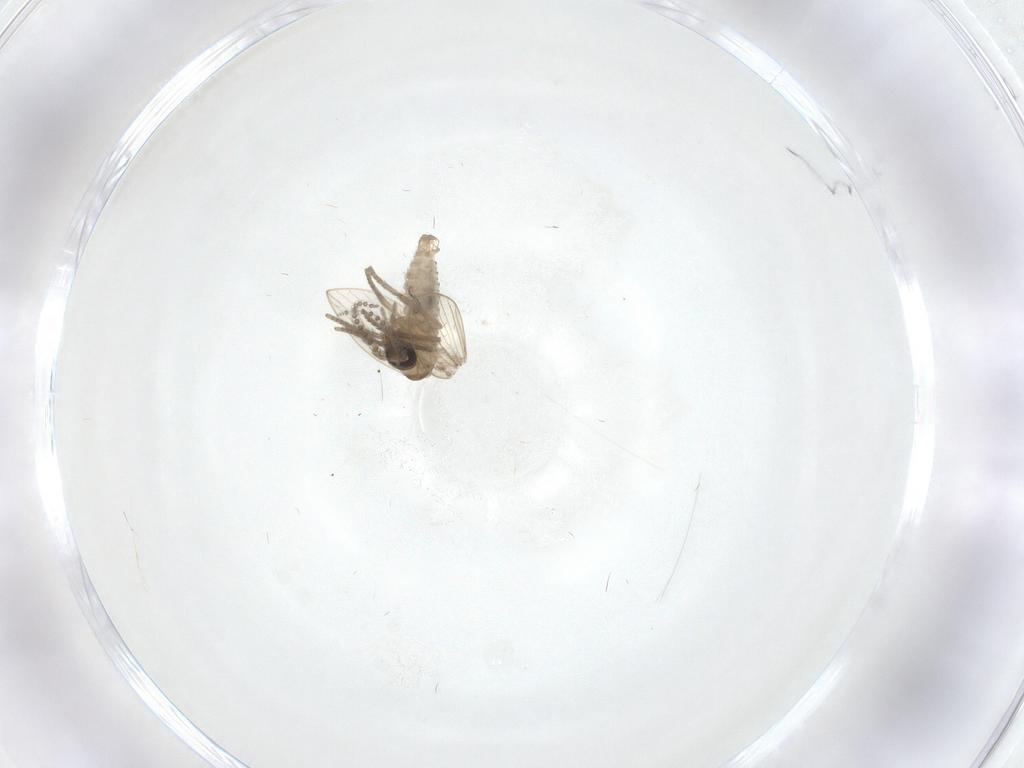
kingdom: Animalia
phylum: Arthropoda
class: Insecta
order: Diptera
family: Psychodidae
